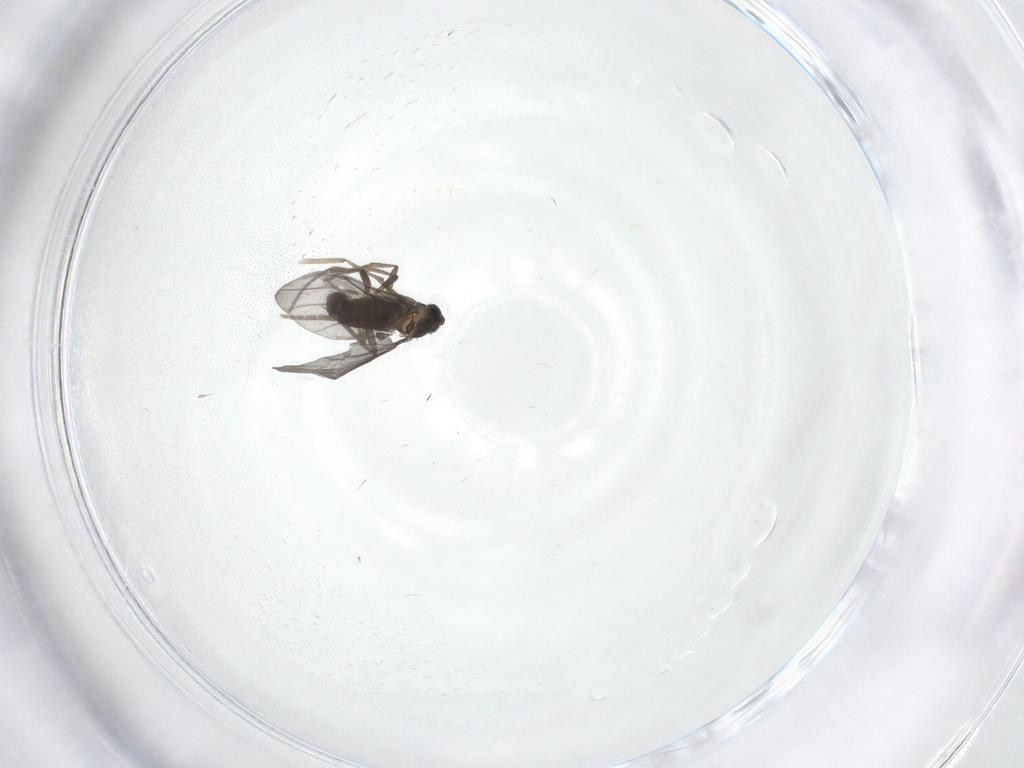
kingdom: Animalia
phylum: Arthropoda
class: Insecta
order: Diptera
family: Phoridae
